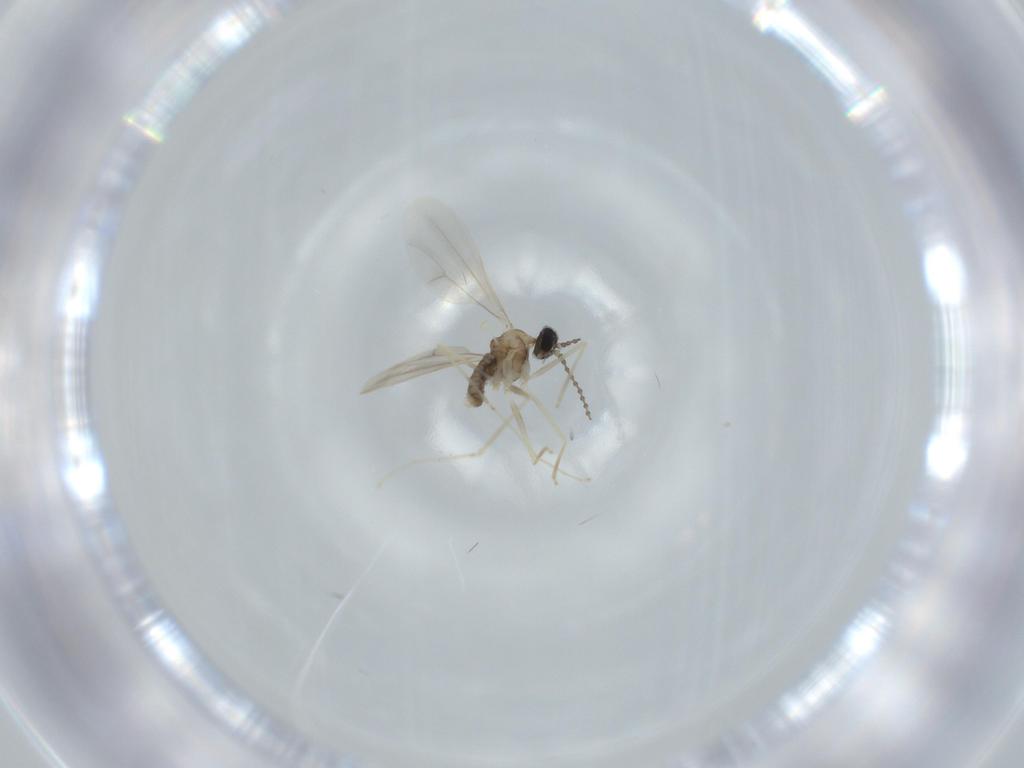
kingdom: Animalia
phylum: Arthropoda
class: Insecta
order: Diptera
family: Cecidomyiidae
